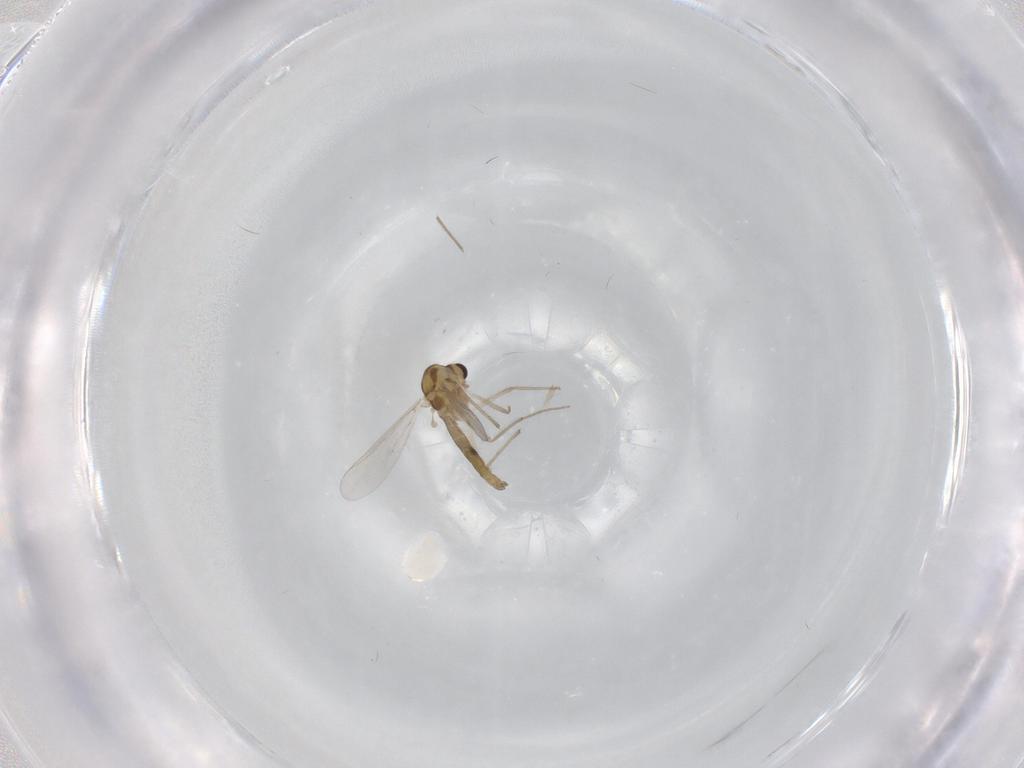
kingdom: Animalia
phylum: Arthropoda
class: Insecta
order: Diptera
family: Chironomidae
